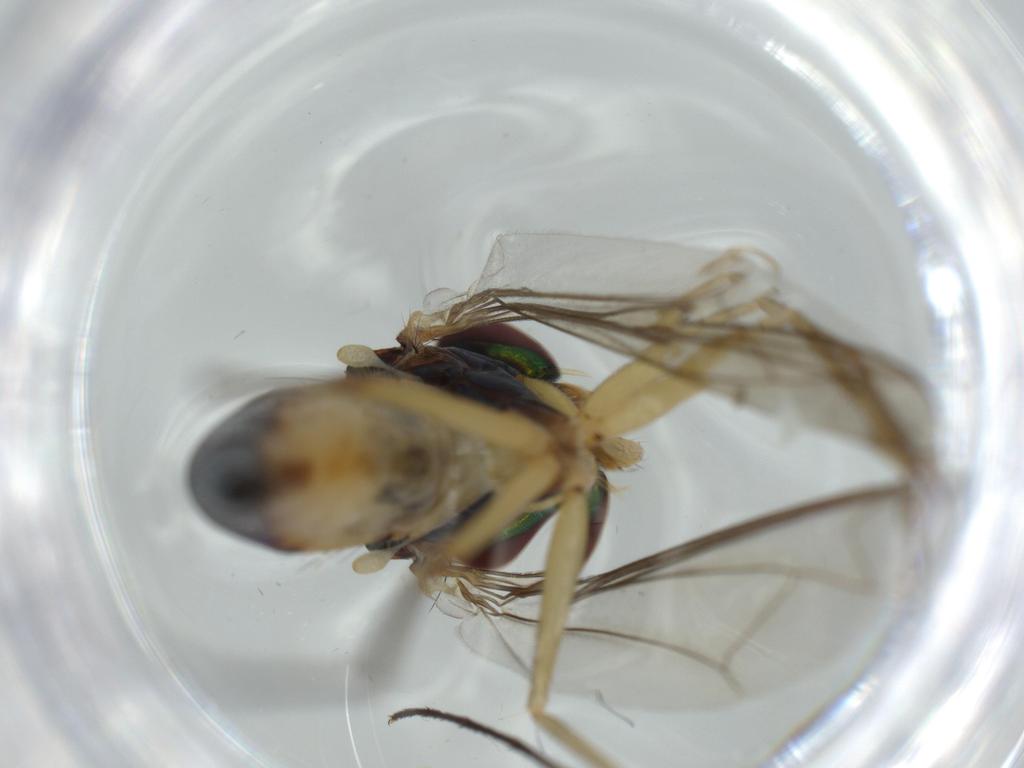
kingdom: Animalia
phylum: Arthropoda
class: Insecta
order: Diptera
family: Dolichopodidae
